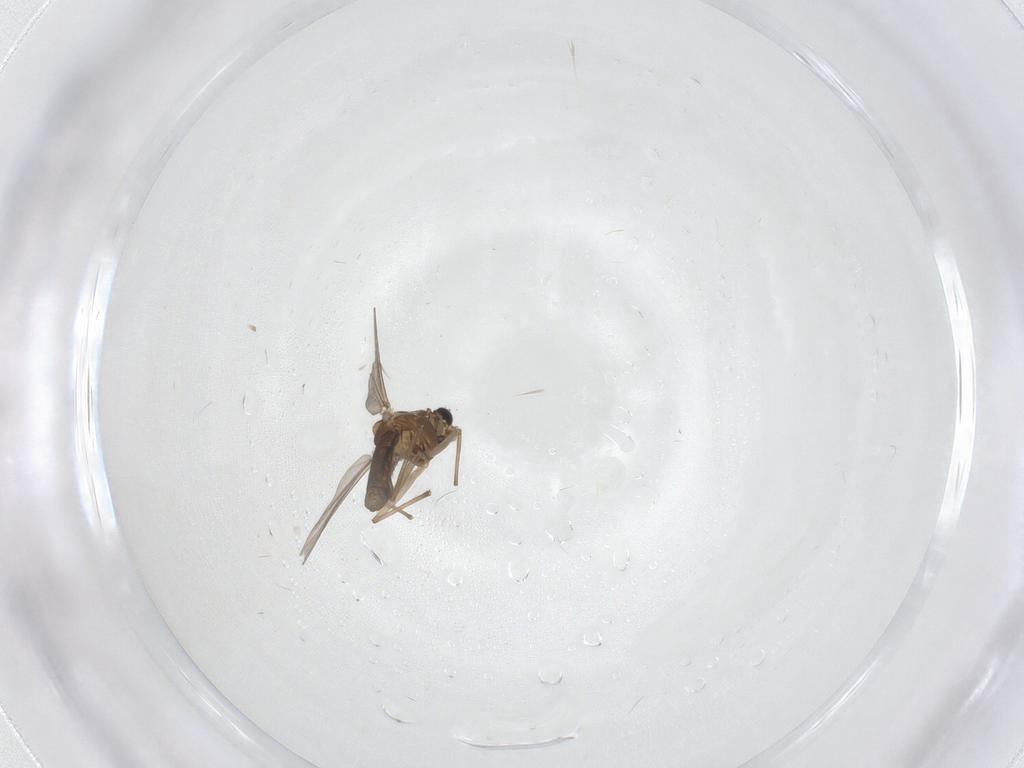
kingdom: Animalia
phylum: Arthropoda
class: Insecta
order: Diptera
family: Chironomidae
